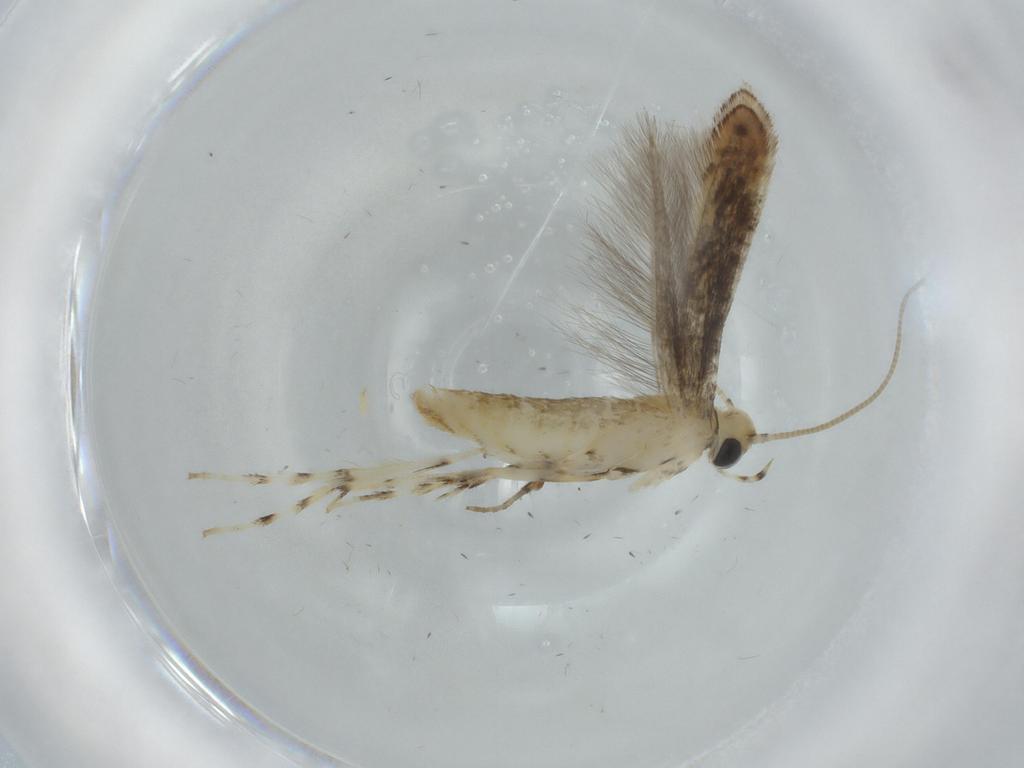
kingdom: Animalia
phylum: Arthropoda
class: Insecta
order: Lepidoptera
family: Gracillariidae
